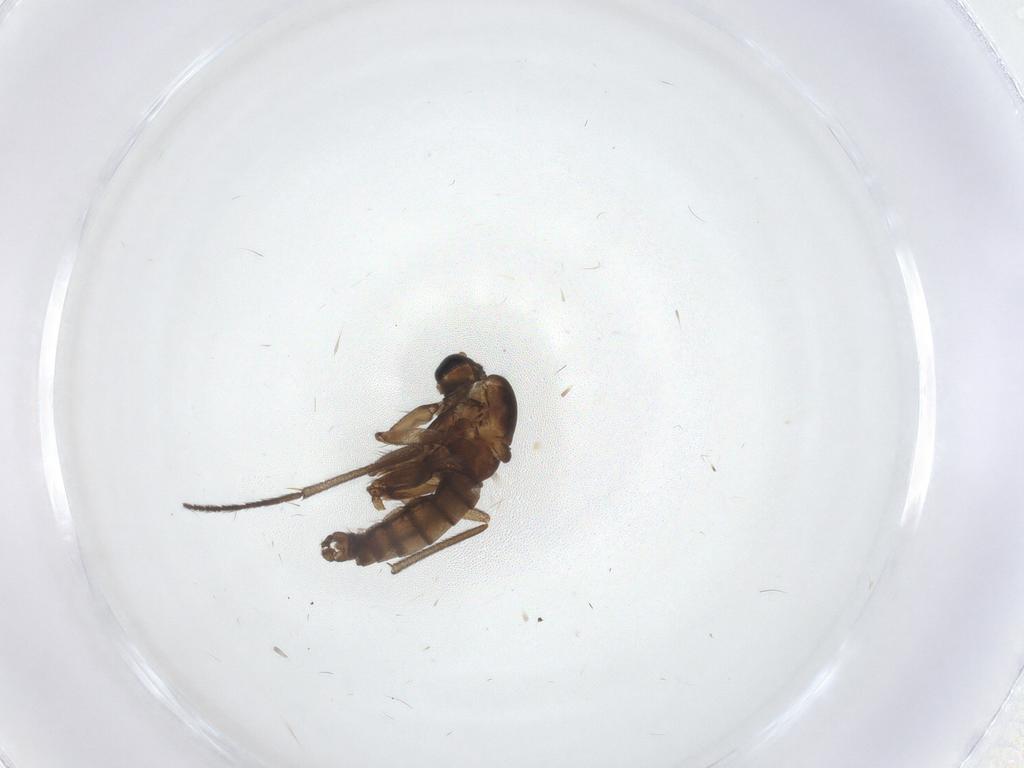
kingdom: Animalia
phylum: Arthropoda
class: Insecta
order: Diptera
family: Sciaridae
